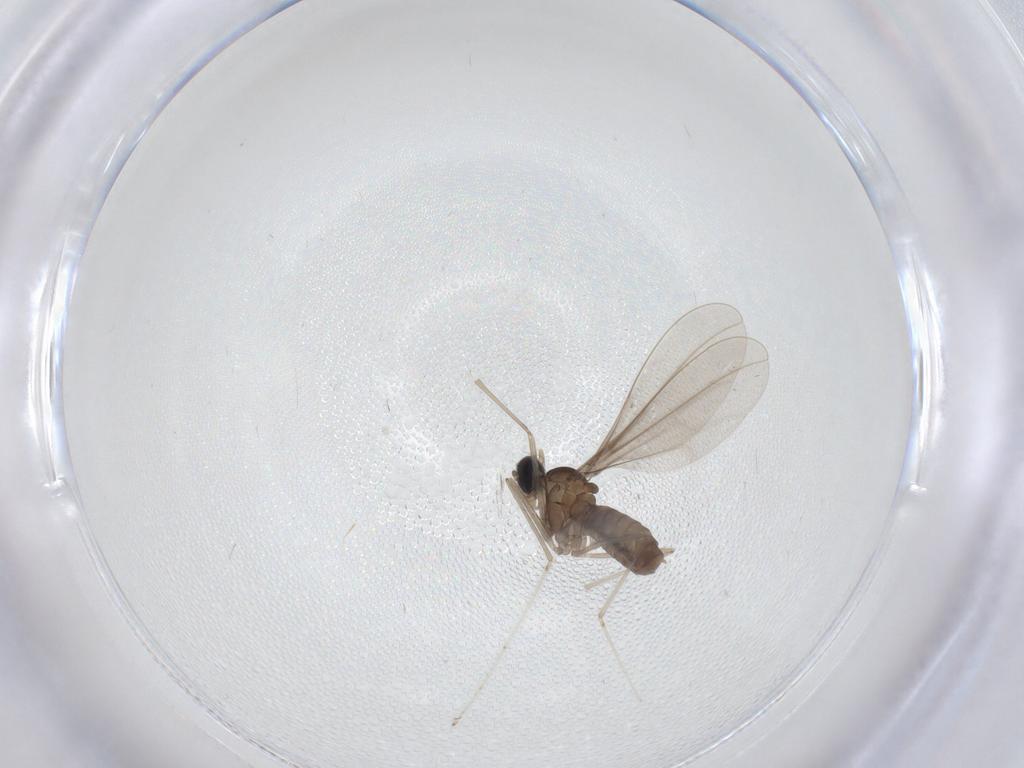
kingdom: Animalia
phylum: Arthropoda
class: Insecta
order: Diptera
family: Cecidomyiidae
